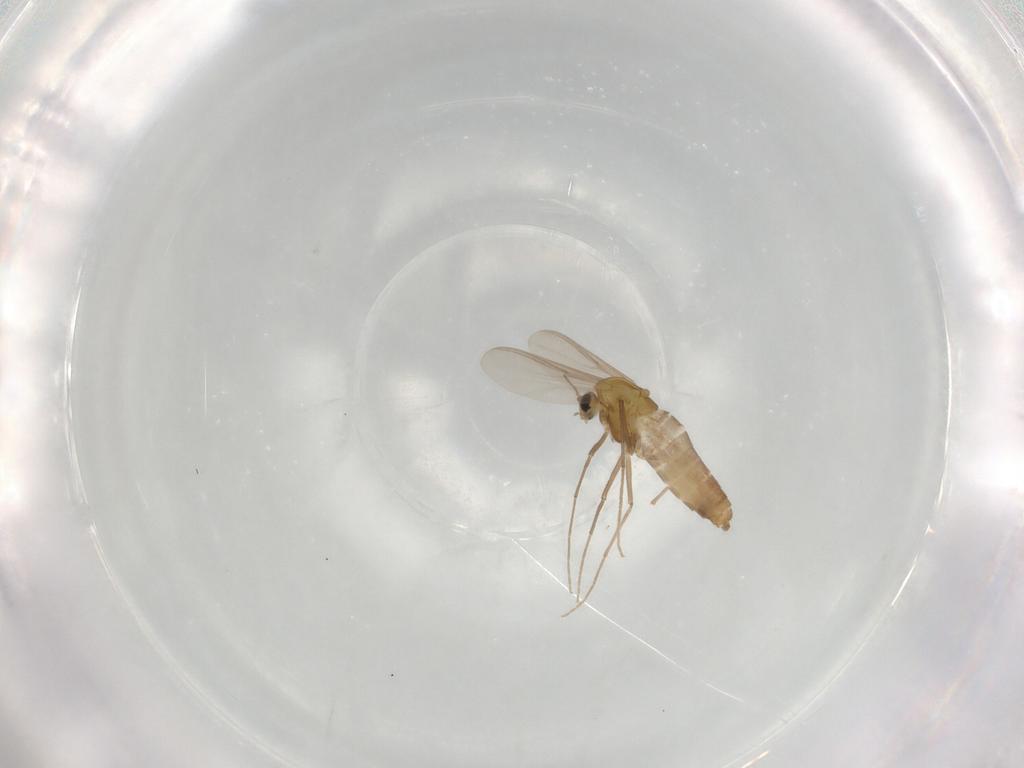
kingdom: Animalia
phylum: Arthropoda
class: Insecta
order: Diptera
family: Chironomidae
